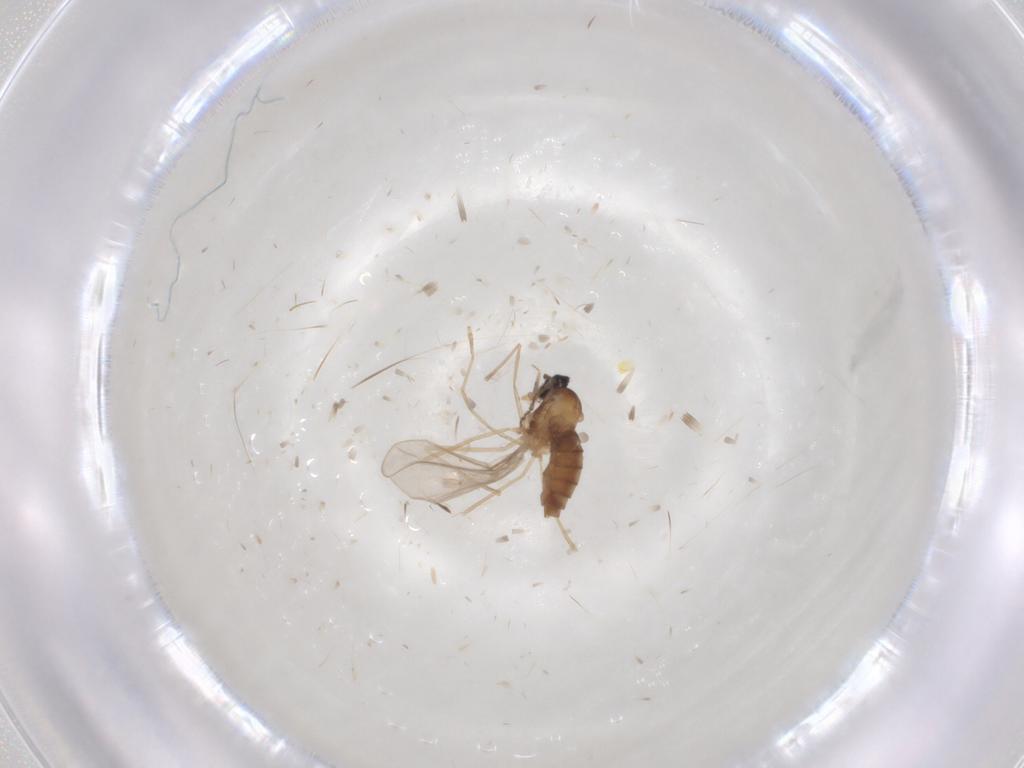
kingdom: Animalia
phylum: Arthropoda
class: Insecta
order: Diptera
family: Cecidomyiidae
